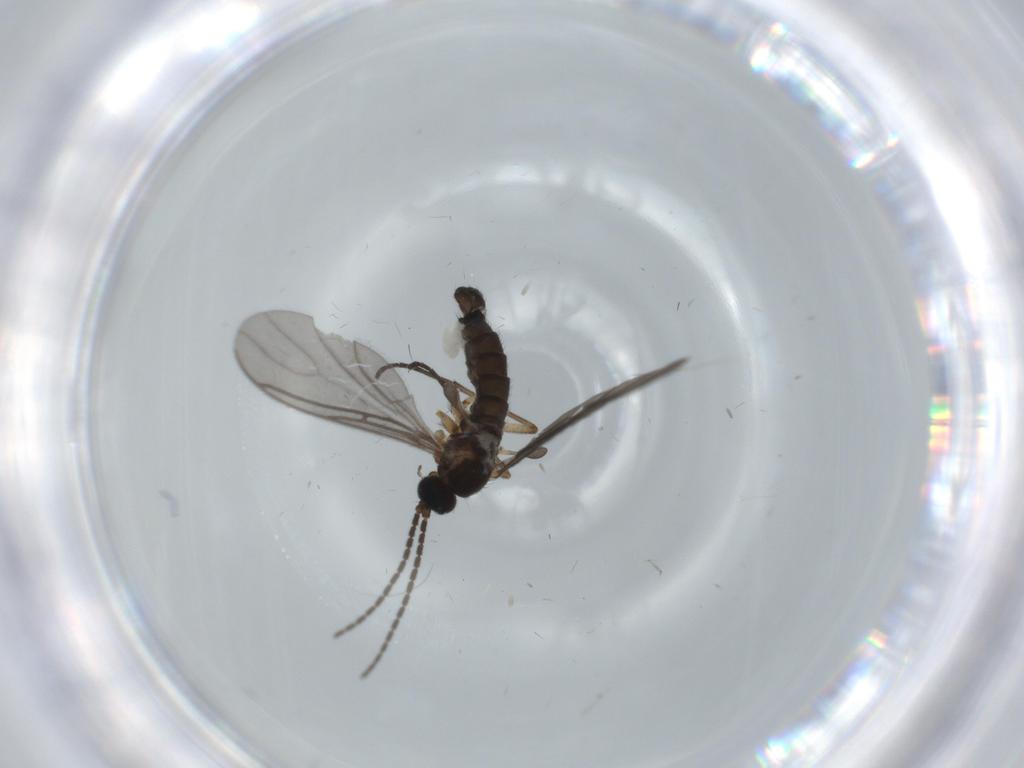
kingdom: Animalia
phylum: Arthropoda
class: Insecta
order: Diptera
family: Sciaridae
